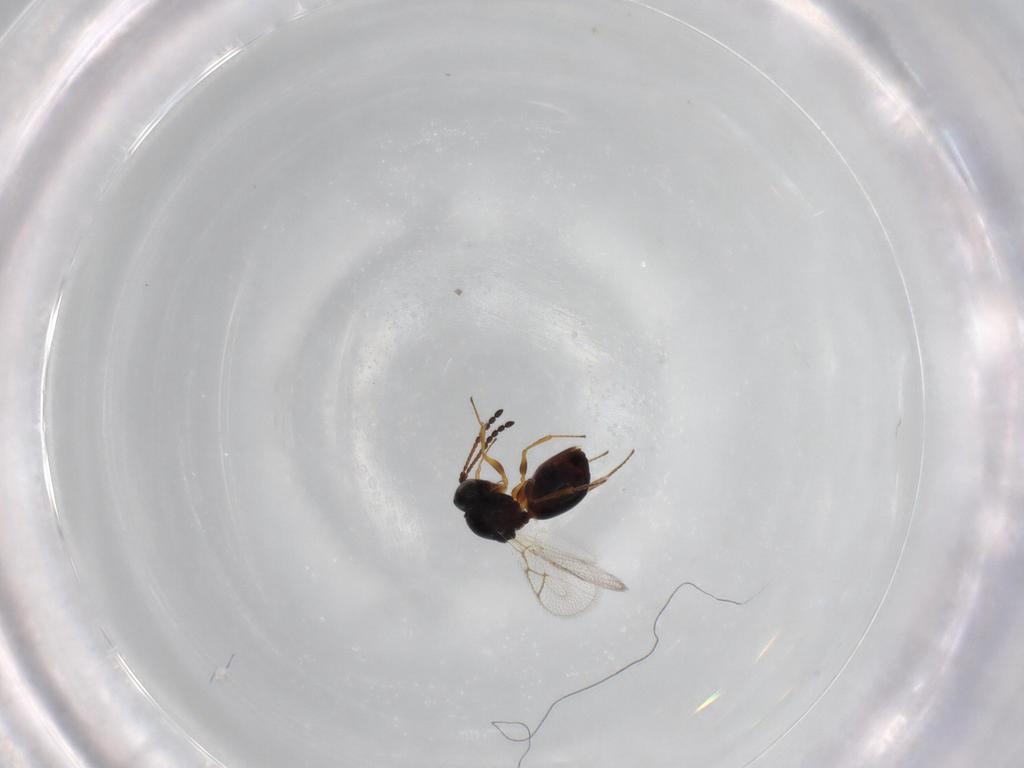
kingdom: Animalia
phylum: Arthropoda
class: Insecta
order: Hymenoptera
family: Figitidae
